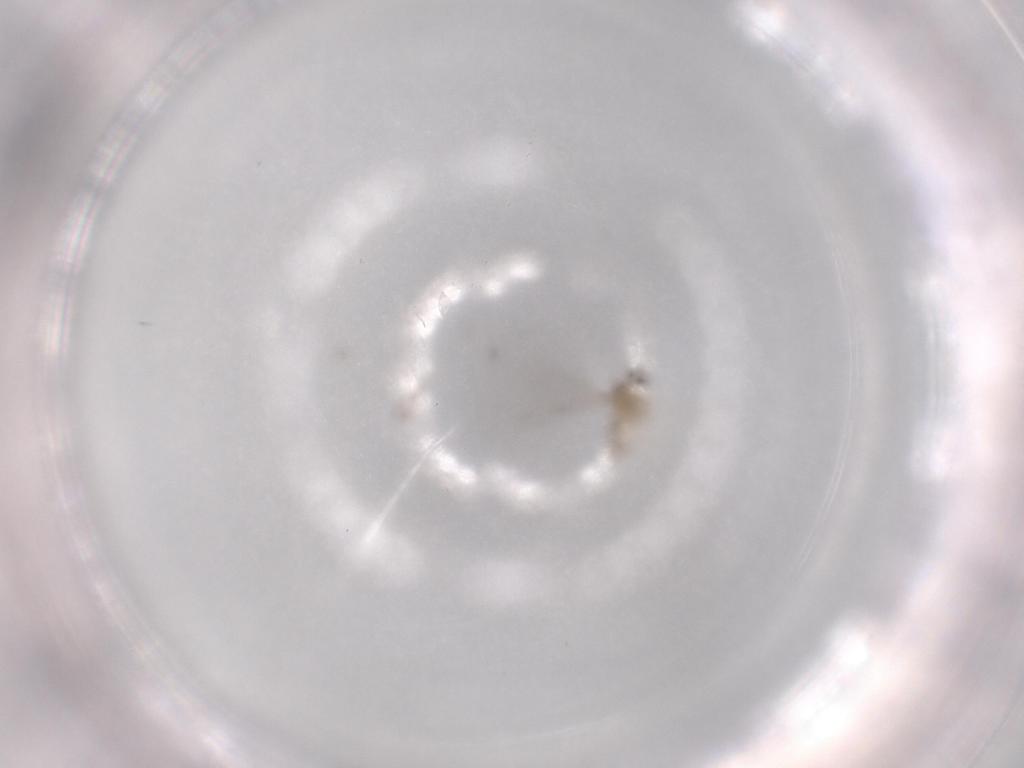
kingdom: Animalia
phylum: Arthropoda
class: Insecta
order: Diptera
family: Cecidomyiidae
